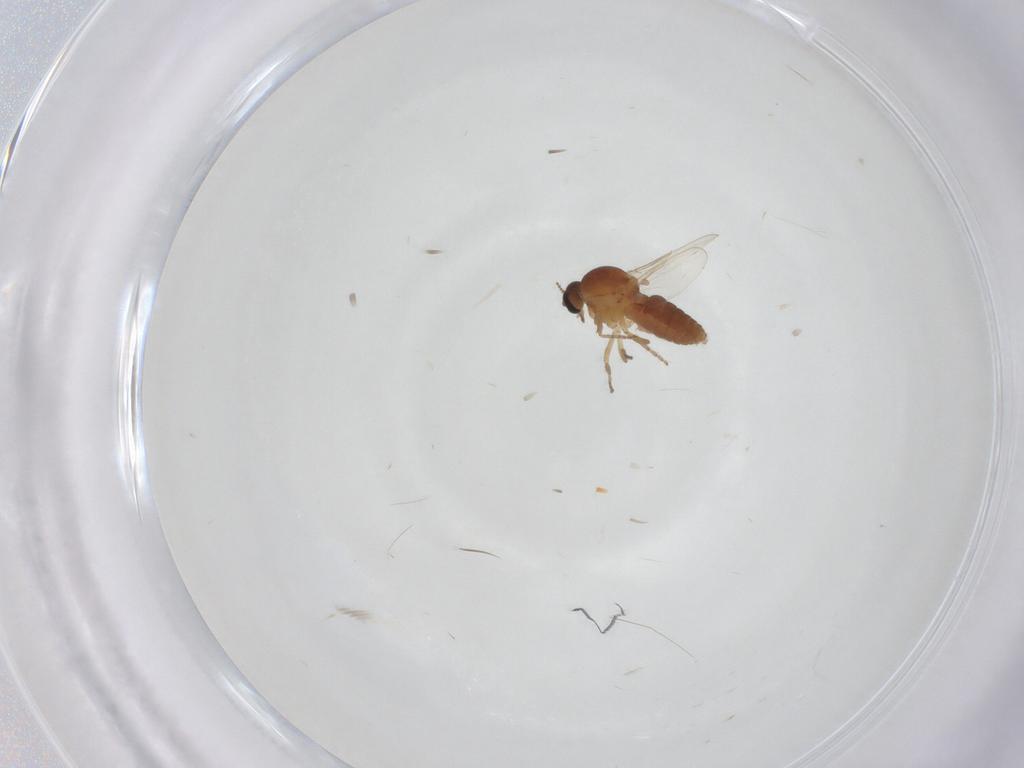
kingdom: Animalia
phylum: Arthropoda
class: Insecta
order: Diptera
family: Ceratopogonidae
